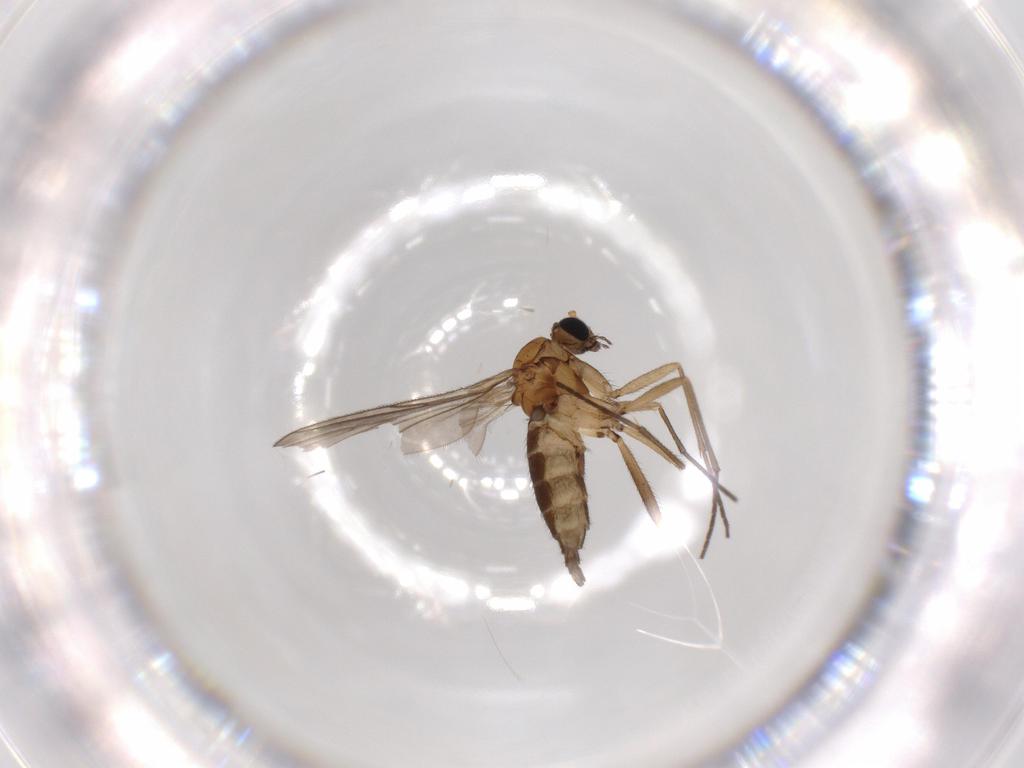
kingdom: Animalia
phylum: Arthropoda
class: Insecta
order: Diptera
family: Sciaridae
